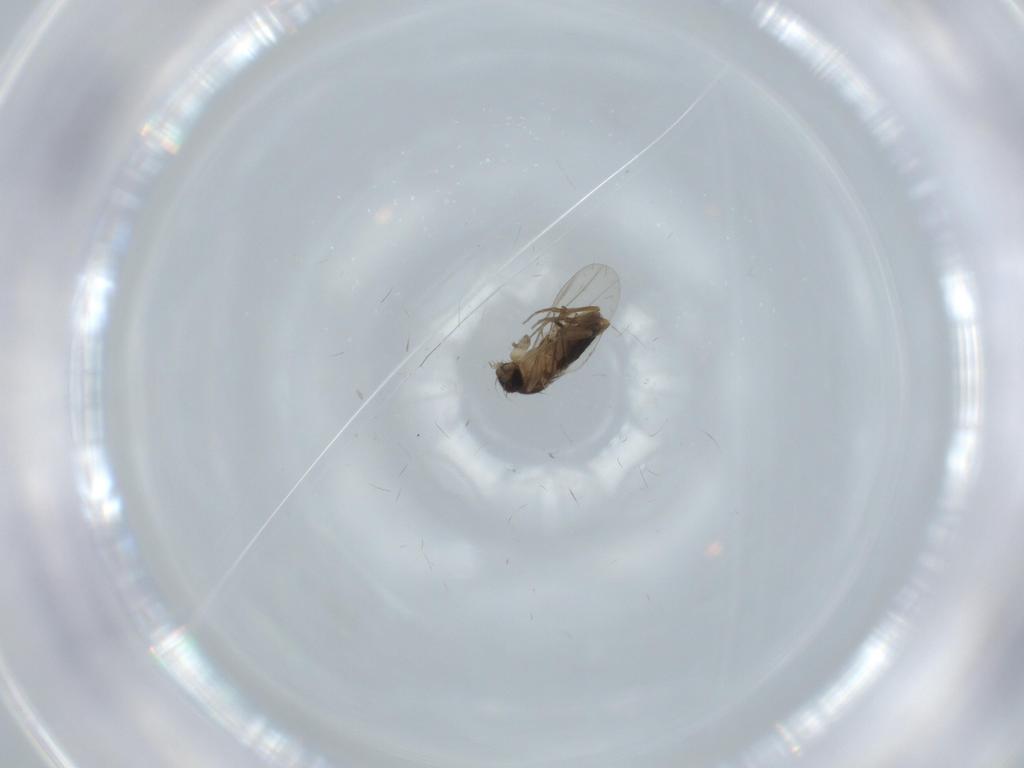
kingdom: Animalia
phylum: Arthropoda
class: Insecta
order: Diptera
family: Phoridae
